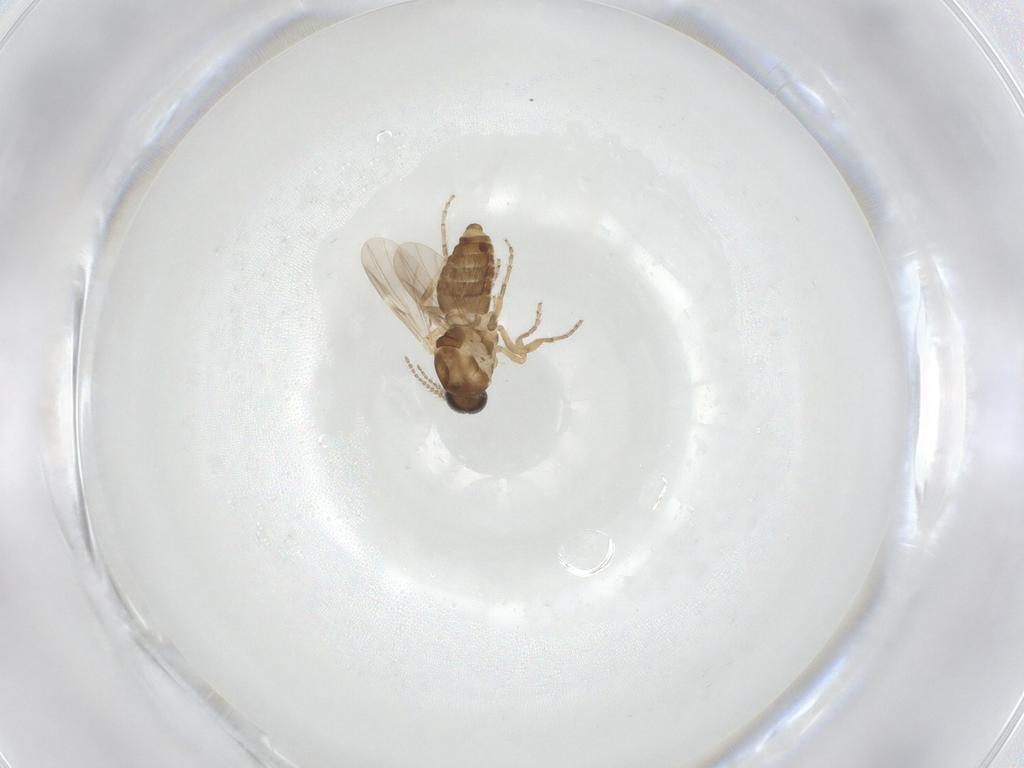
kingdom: Animalia
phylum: Arthropoda
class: Insecta
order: Diptera
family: Ceratopogonidae
